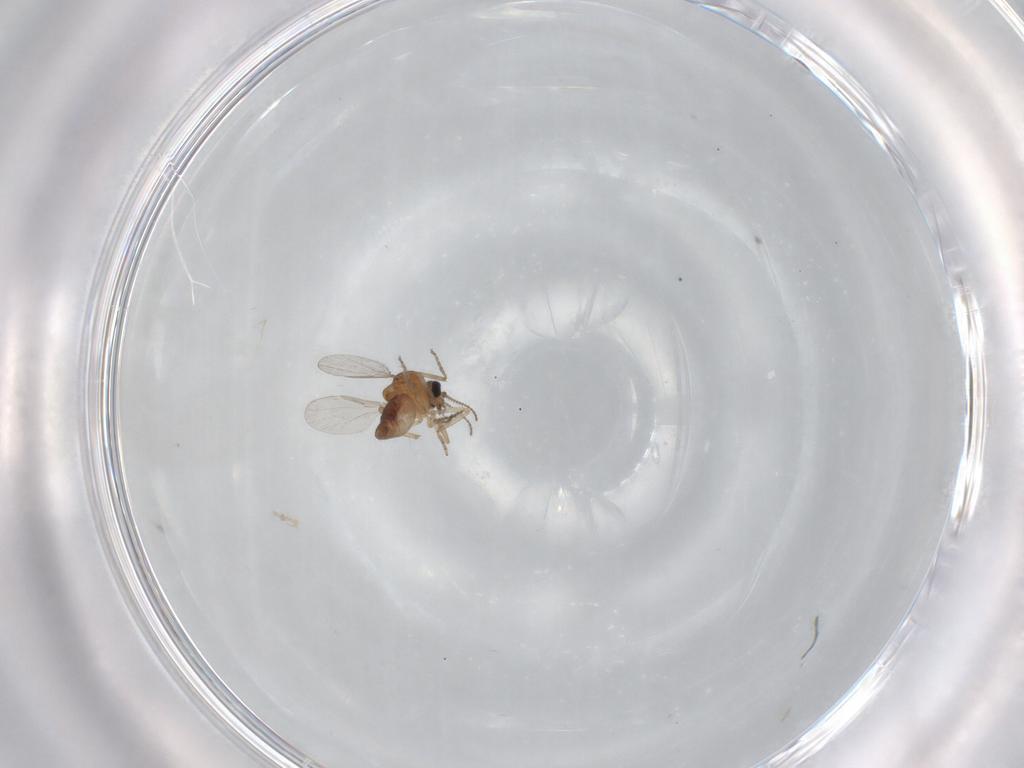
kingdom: Animalia
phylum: Arthropoda
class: Insecta
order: Diptera
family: Ceratopogonidae
